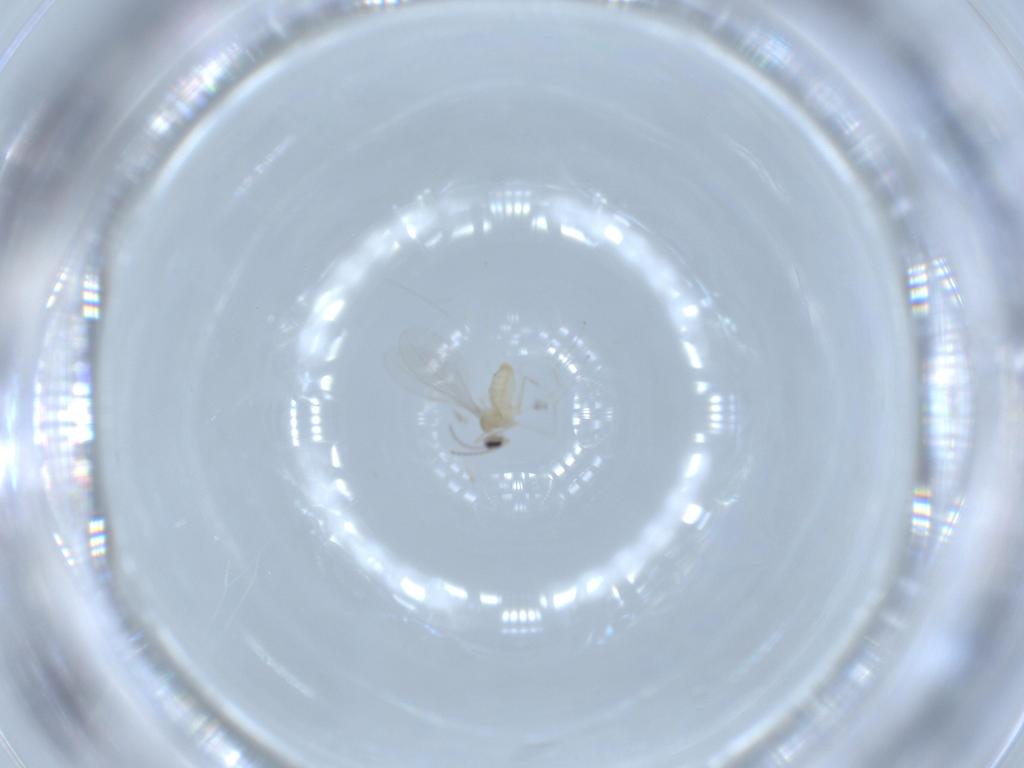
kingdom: Animalia
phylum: Arthropoda
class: Insecta
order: Diptera
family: Cecidomyiidae
